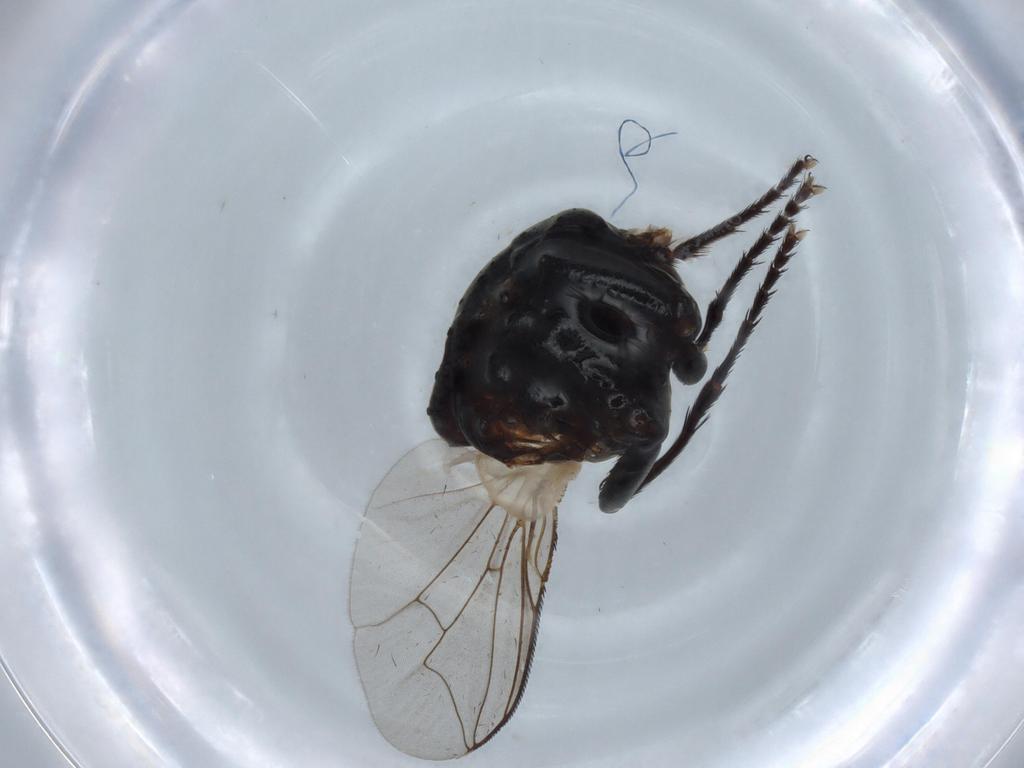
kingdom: Animalia
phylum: Arthropoda
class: Insecta
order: Diptera
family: Sarcophagidae
